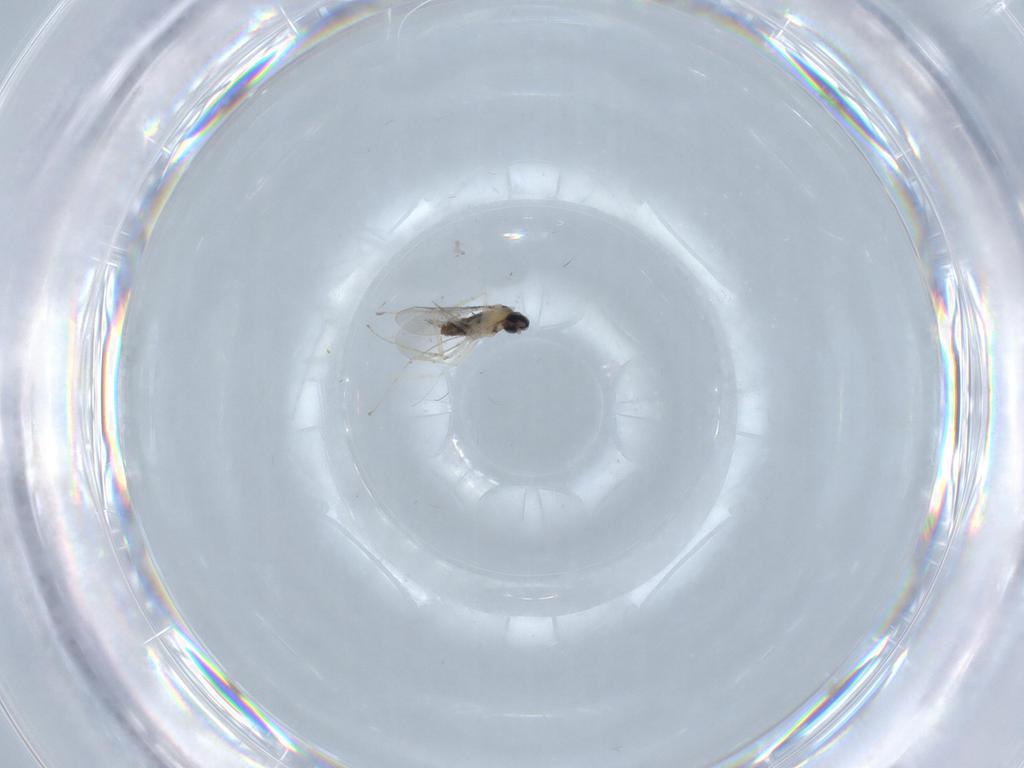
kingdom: Animalia
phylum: Arthropoda
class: Insecta
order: Diptera
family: Cecidomyiidae
